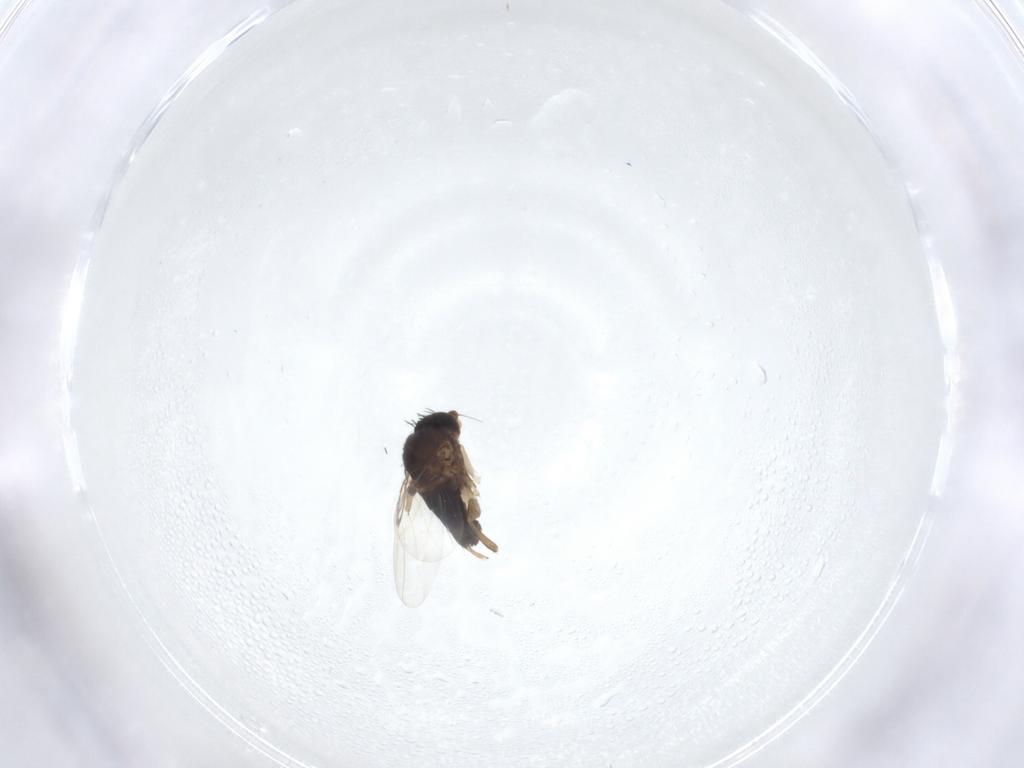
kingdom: Animalia
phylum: Arthropoda
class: Insecta
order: Diptera
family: Phoridae
